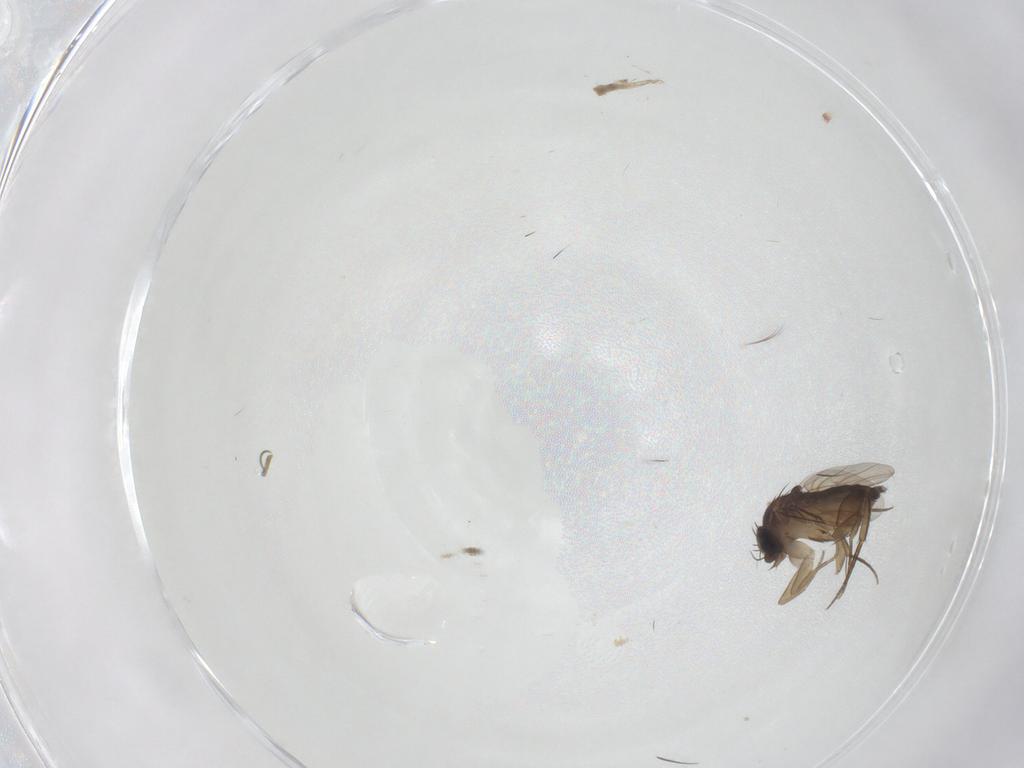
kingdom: Animalia
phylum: Arthropoda
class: Insecta
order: Diptera
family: Phoridae
